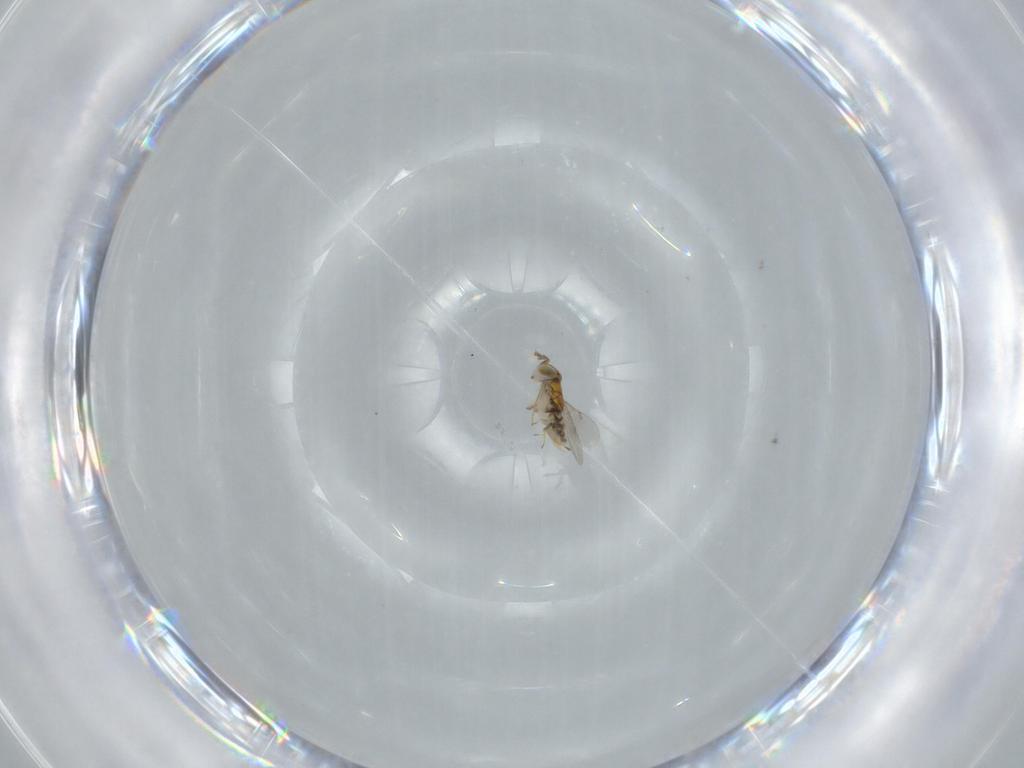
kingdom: Animalia
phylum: Arthropoda
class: Insecta
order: Hymenoptera
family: Encyrtidae
